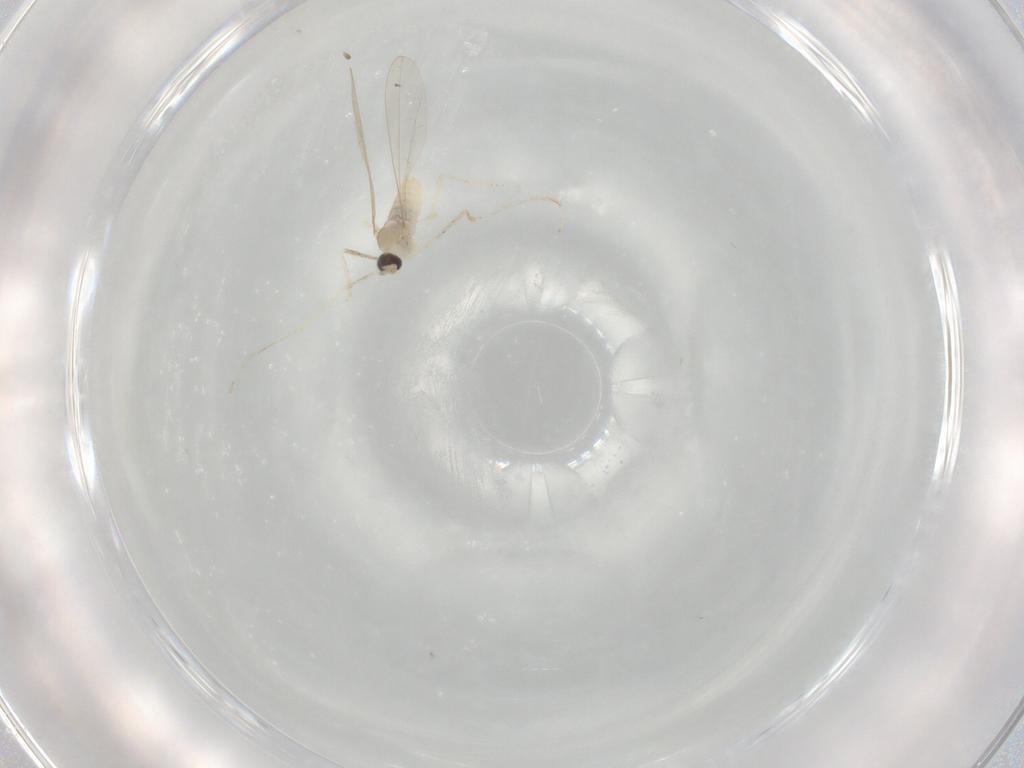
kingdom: Animalia
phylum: Arthropoda
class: Insecta
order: Diptera
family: Cecidomyiidae
